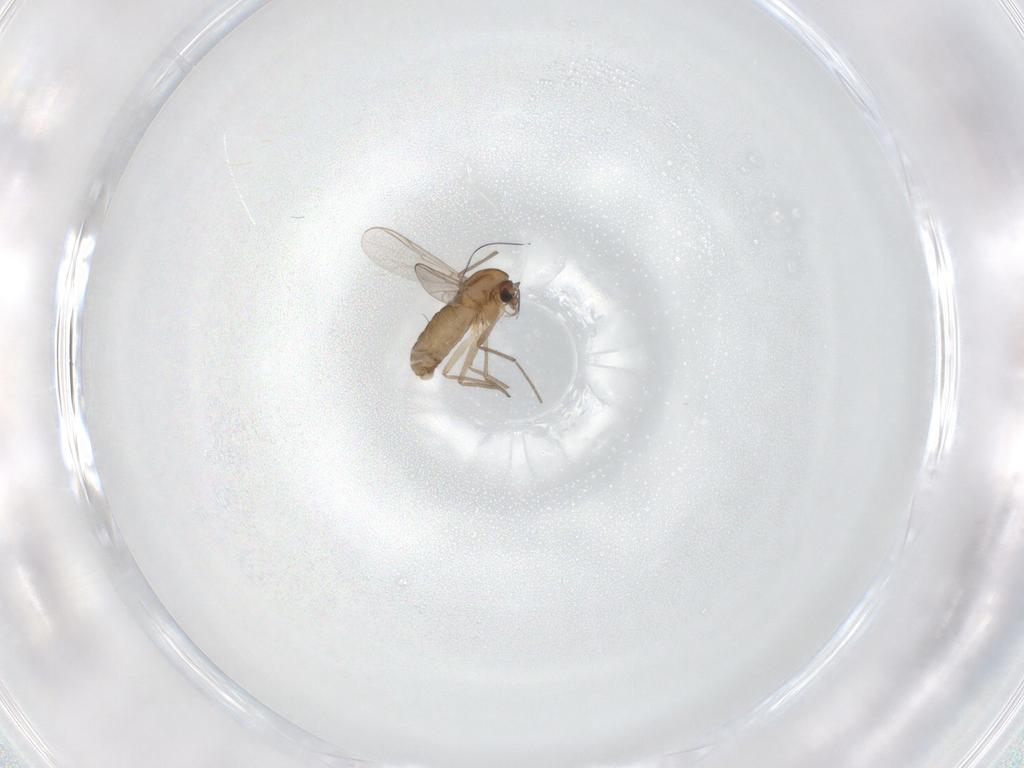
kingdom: Animalia
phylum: Arthropoda
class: Insecta
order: Diptera
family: Chironomidae
